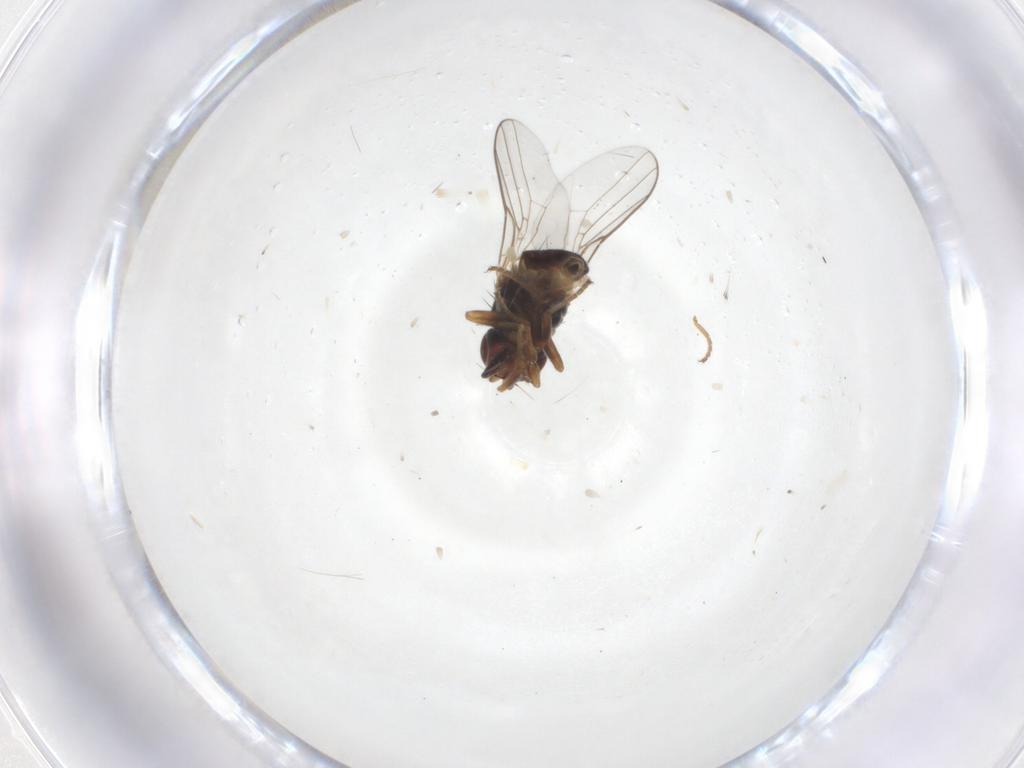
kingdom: Animalia
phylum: Arthropoda
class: Insecta
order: Diptera
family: Chloropidae
